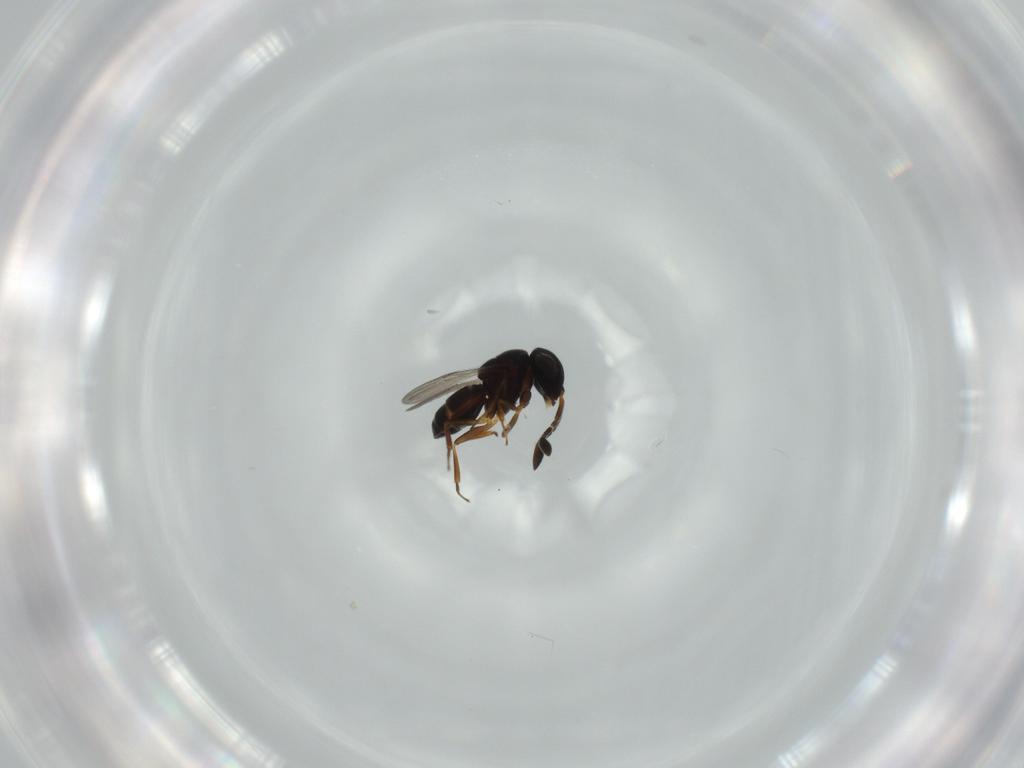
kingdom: Animalia
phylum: Arthropoda
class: Insecta
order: Coleoptera
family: Curculionidae
